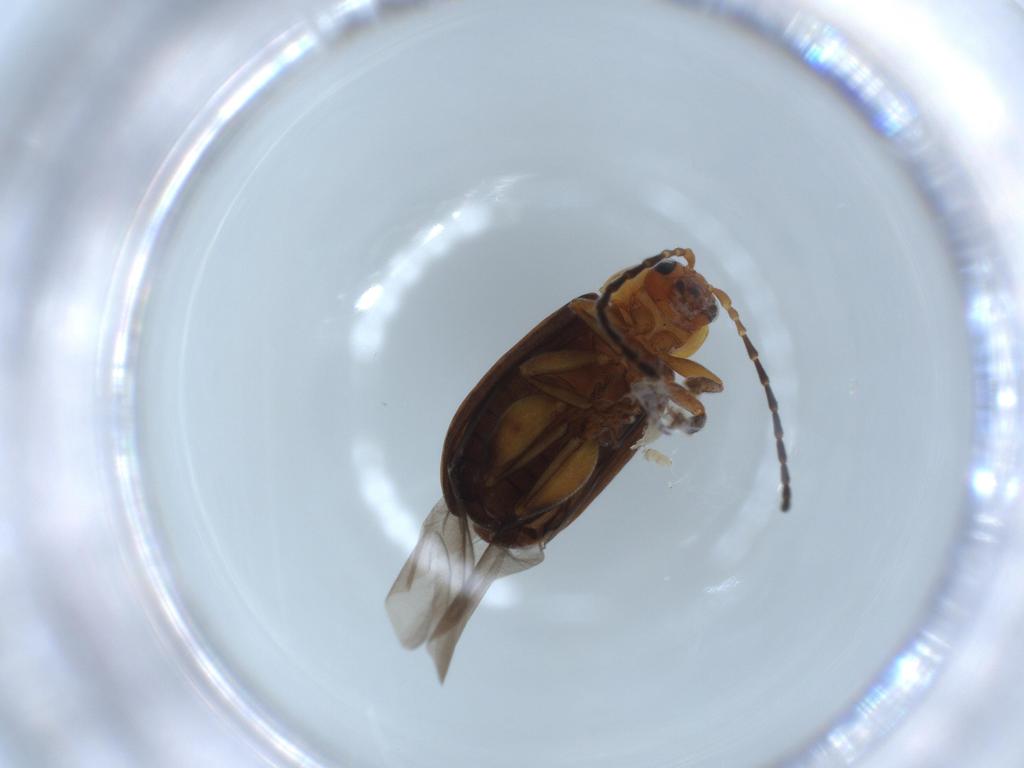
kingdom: Animalia
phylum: Arthropoda
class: Insecta
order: Coleoptera
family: Chrysomelidae
